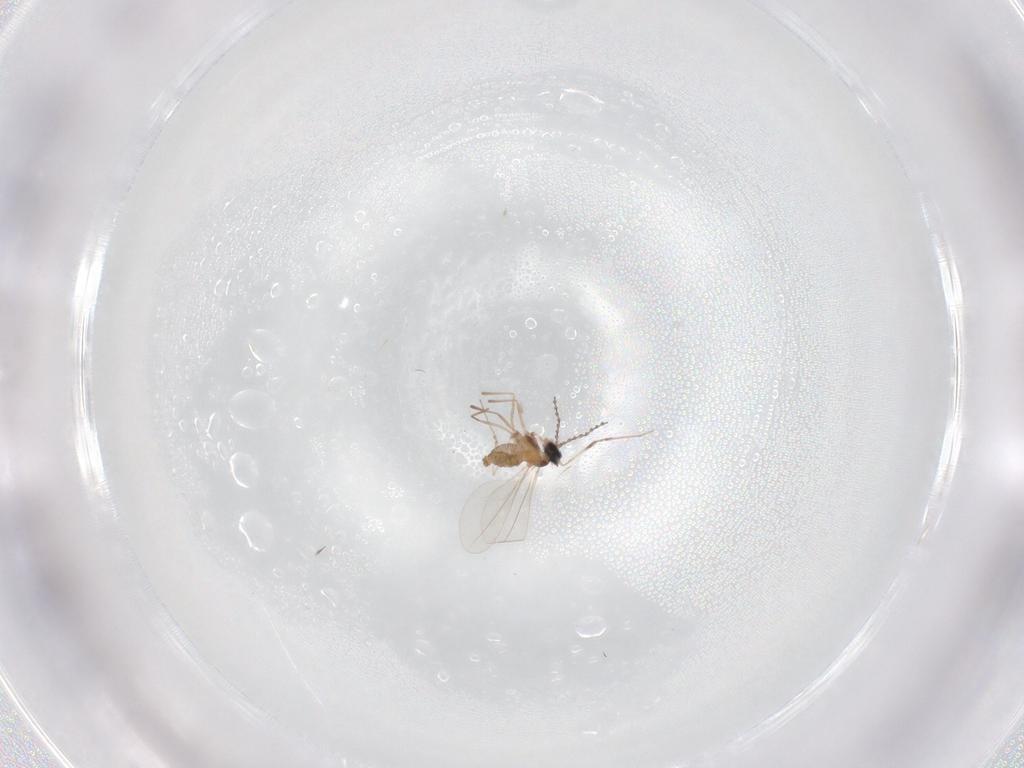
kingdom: Animalia
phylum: Arthropoda
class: Insecta
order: Diptera
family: Cecidomyiidae
